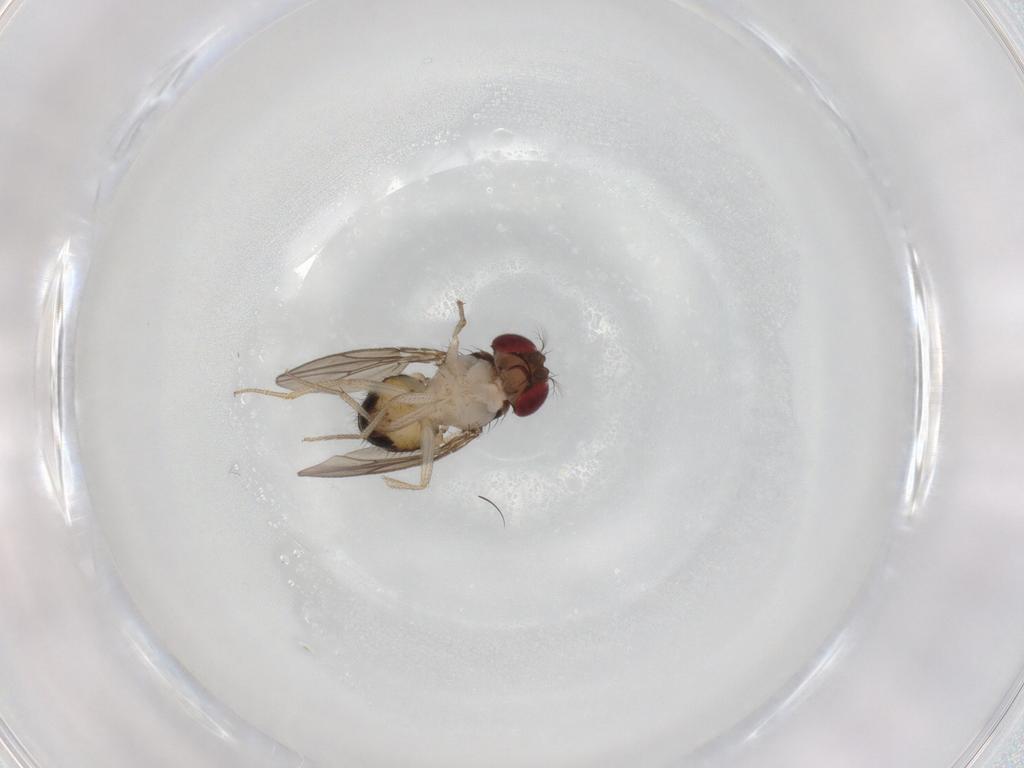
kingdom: Animalia
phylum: Arthropoda
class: Insecta
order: Diptera
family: Drosophilidae
